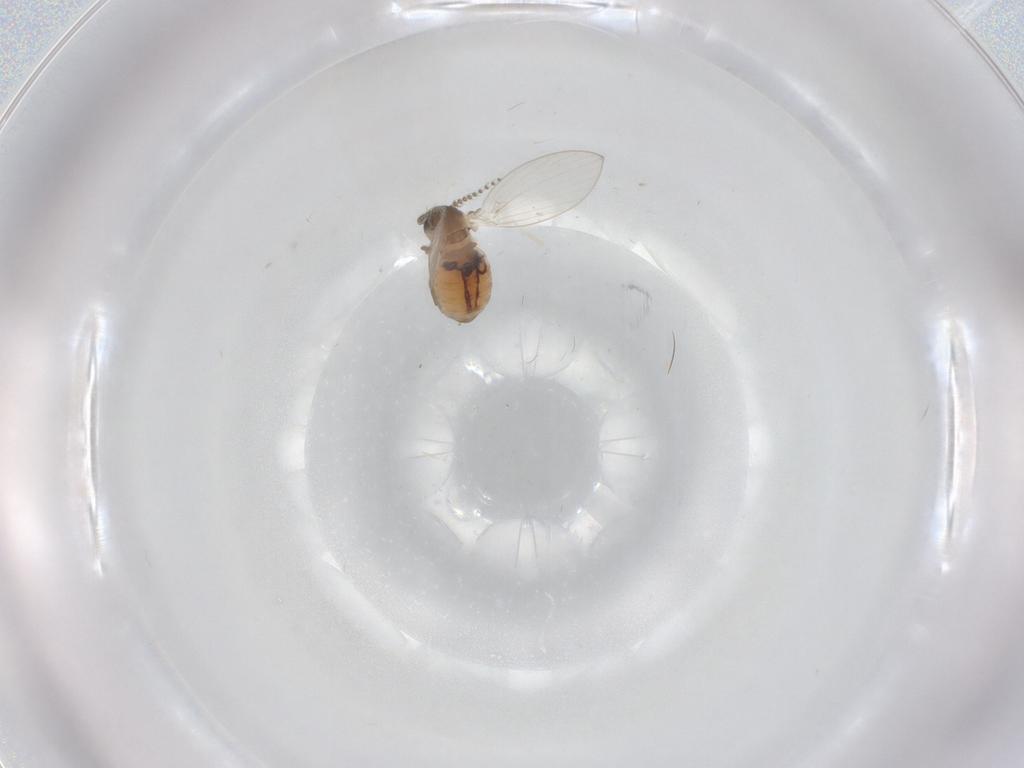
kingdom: Animalia
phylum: Arthropoda
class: Insecta
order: Diptera
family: Psychodidae
